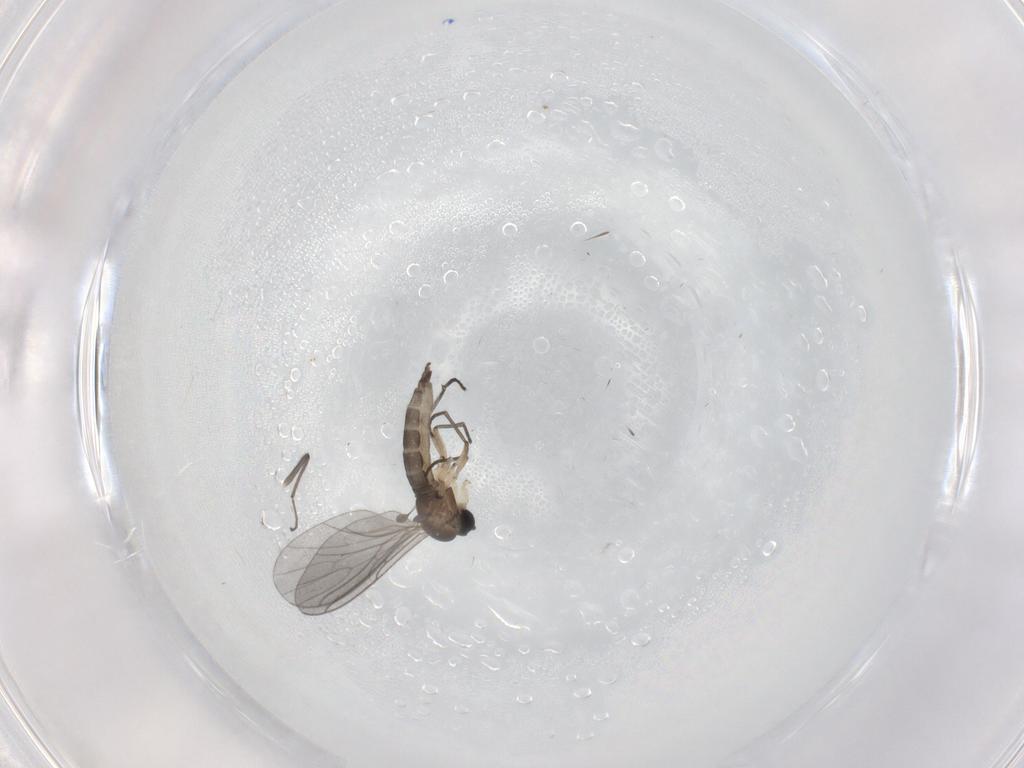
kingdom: Animalia
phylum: Arthropoda
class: Insecta
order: Diptera
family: Sciaridae
